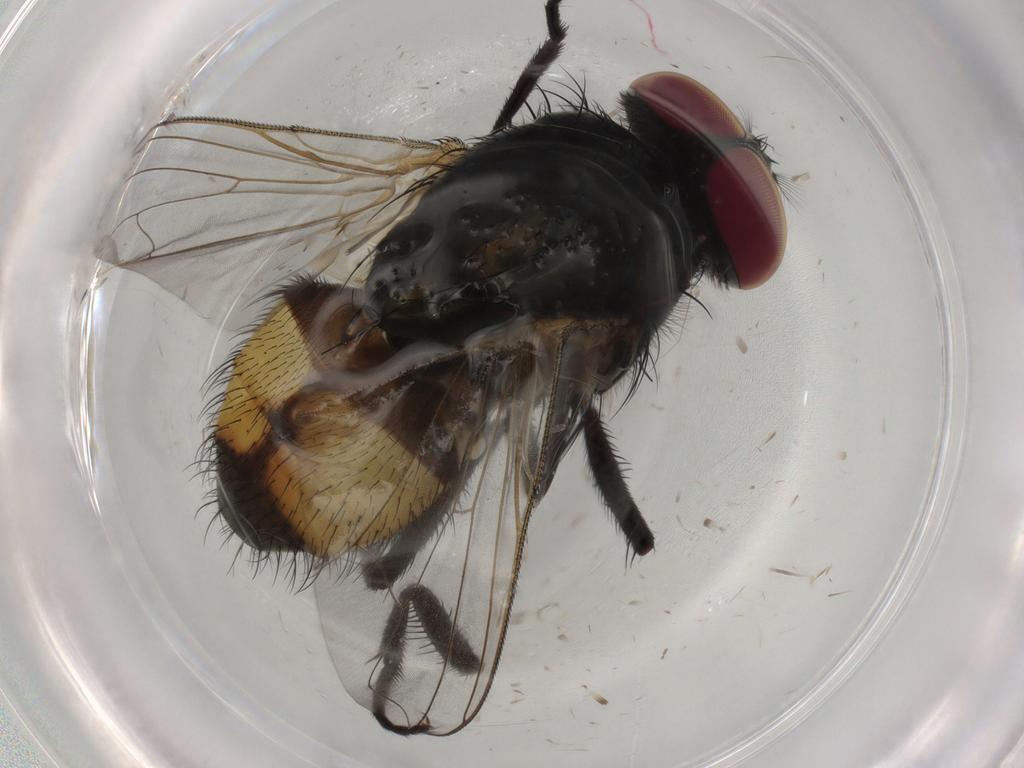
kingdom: Animalia
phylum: Arthropoda
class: Insecta
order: Diptera
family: Muscidae
